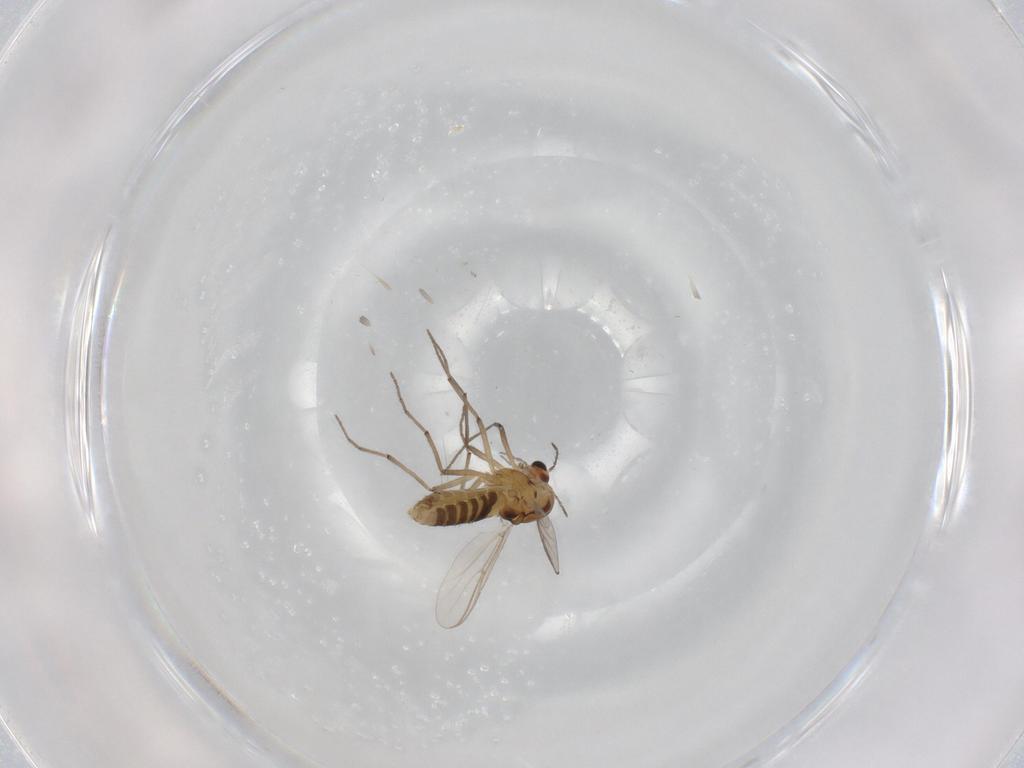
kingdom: Animalia
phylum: Arthropoda
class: Insecta
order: Diptera
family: Chironomidae
